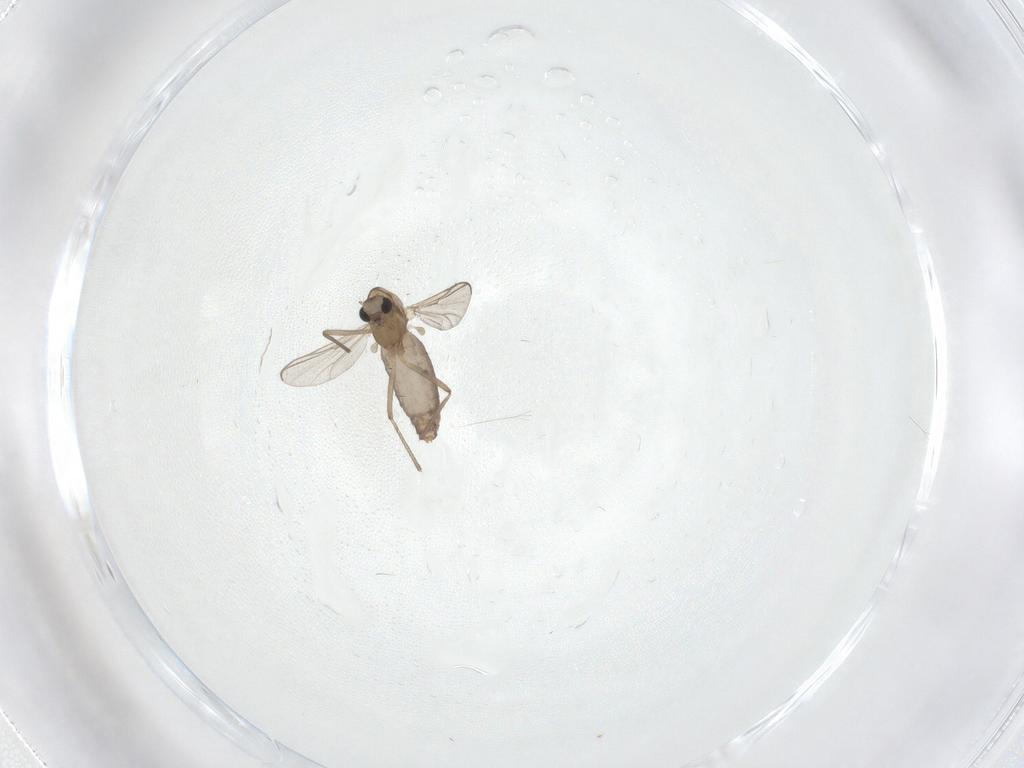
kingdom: Animalia
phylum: Arthropoda
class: Insecta
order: Diptera
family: Chironomidae
